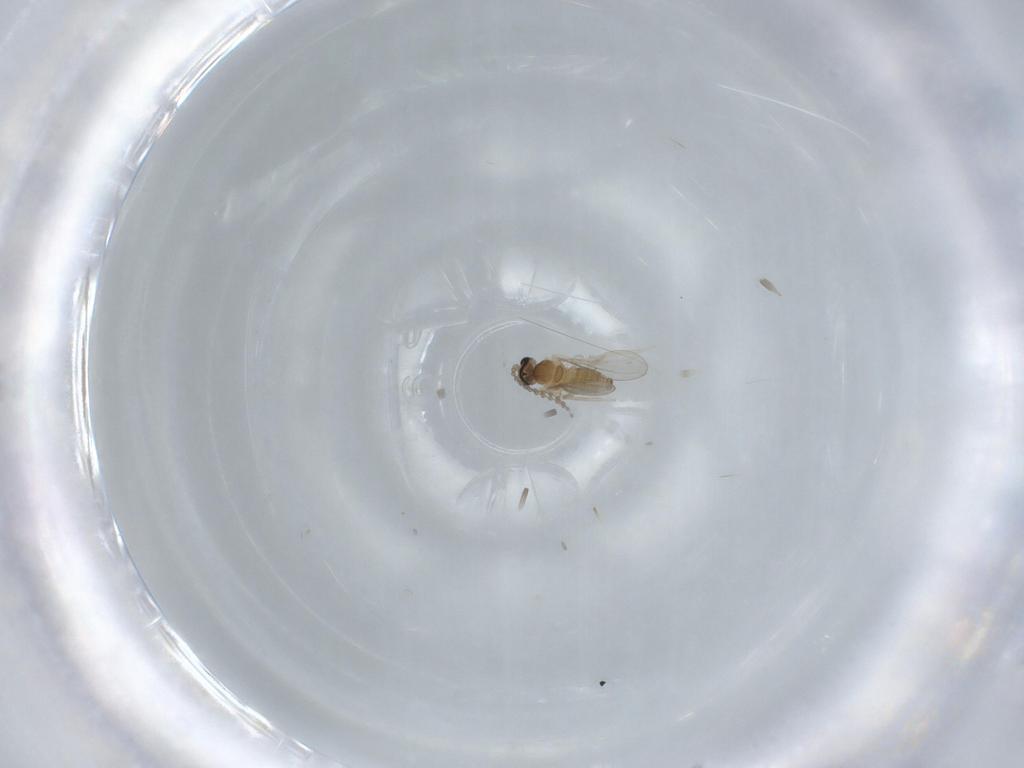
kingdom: Animalia
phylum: Arthropoda
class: Insecta
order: Diptera
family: Cecidomyiidae
